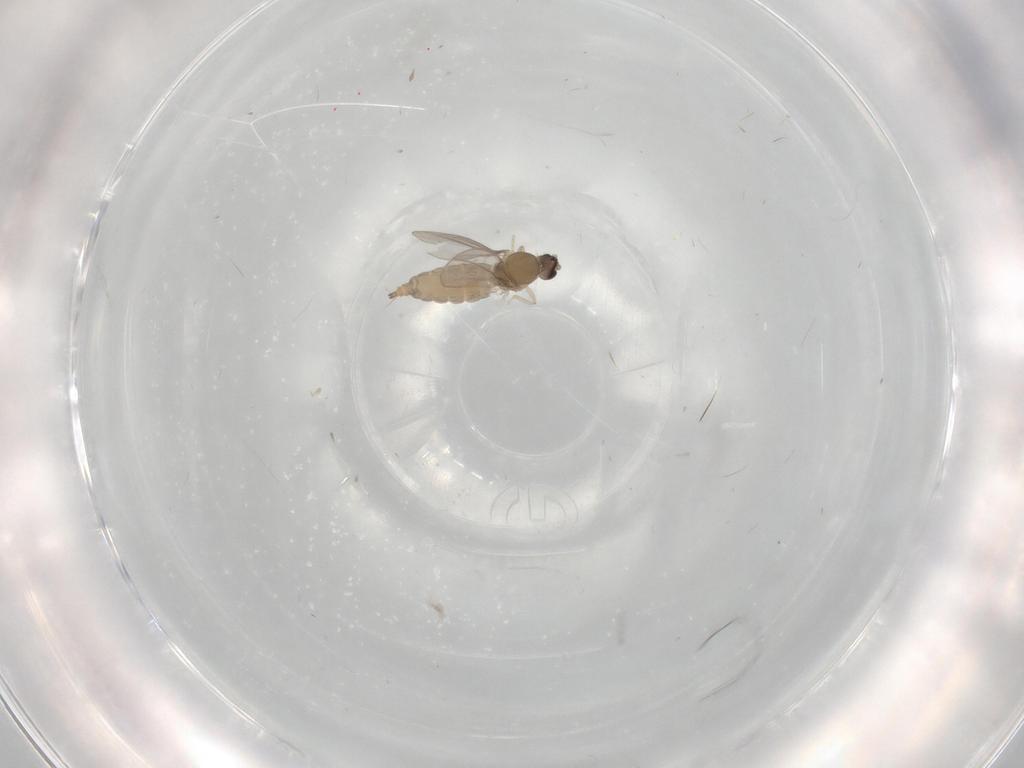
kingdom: Animalia
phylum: Arthropoda
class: Insecta
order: Diptera
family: Cecidomyiidae
